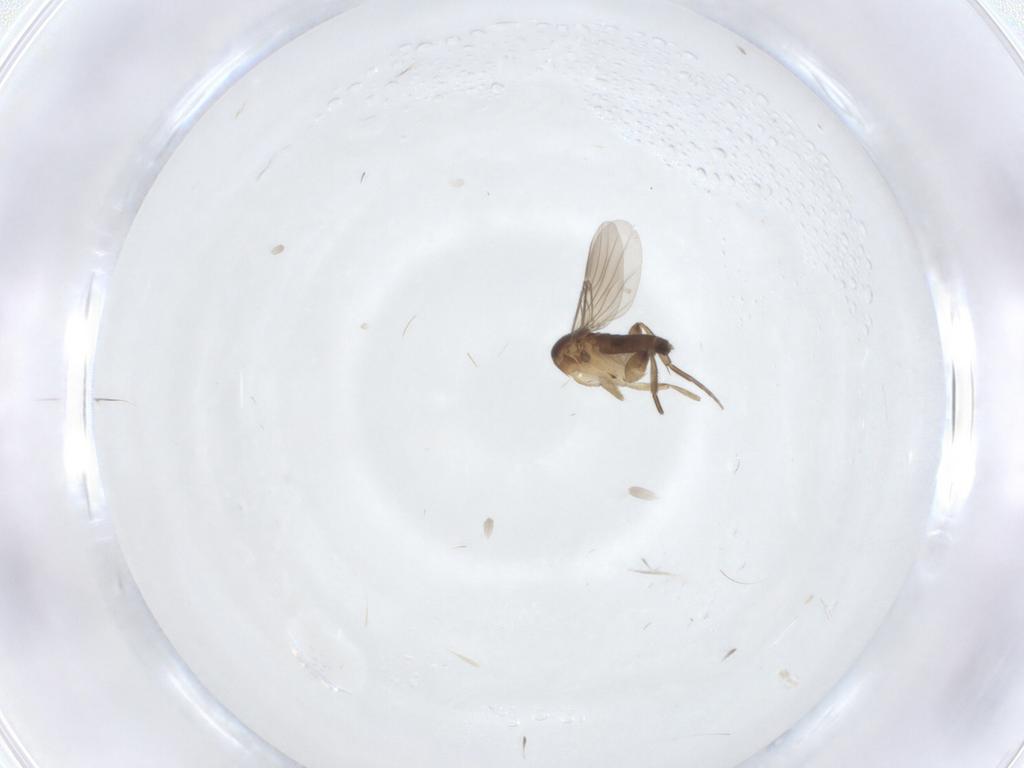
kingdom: Animalia
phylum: Arthropoda
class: Insecta
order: Diptera
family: Phoridae
